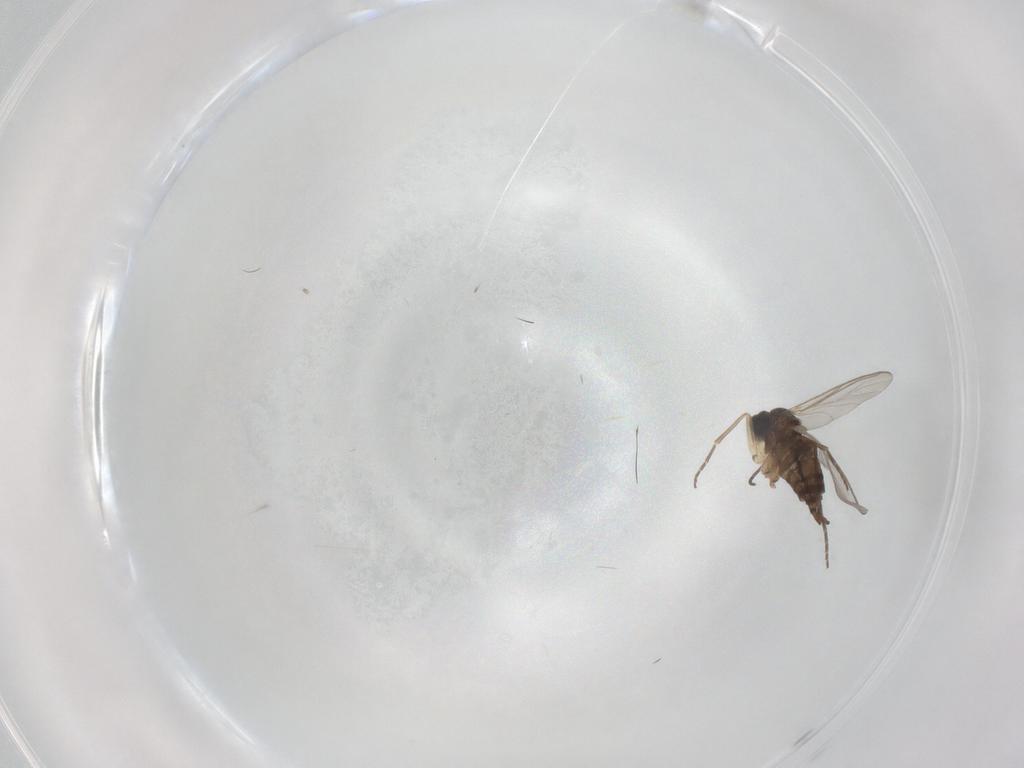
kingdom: Animalia
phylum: Arthropoda
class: Insecta
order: Diptera
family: Sciaridae
